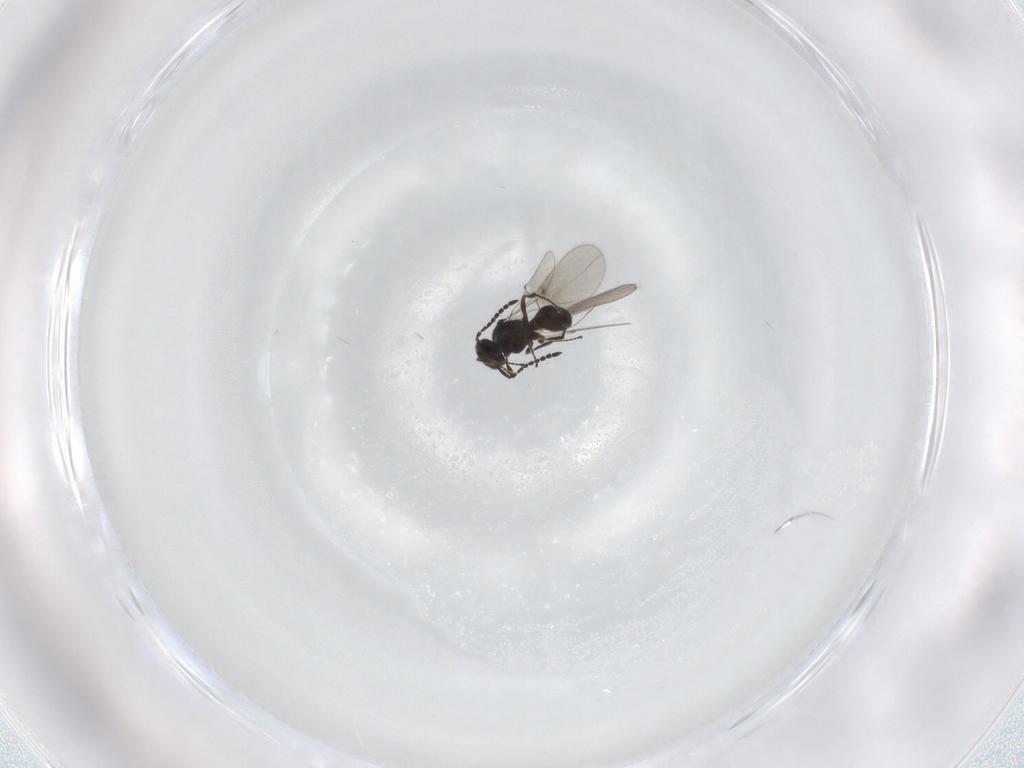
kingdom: Animalia
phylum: Arthropoda
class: Insecta
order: Hymenoptera
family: Platygastridae
